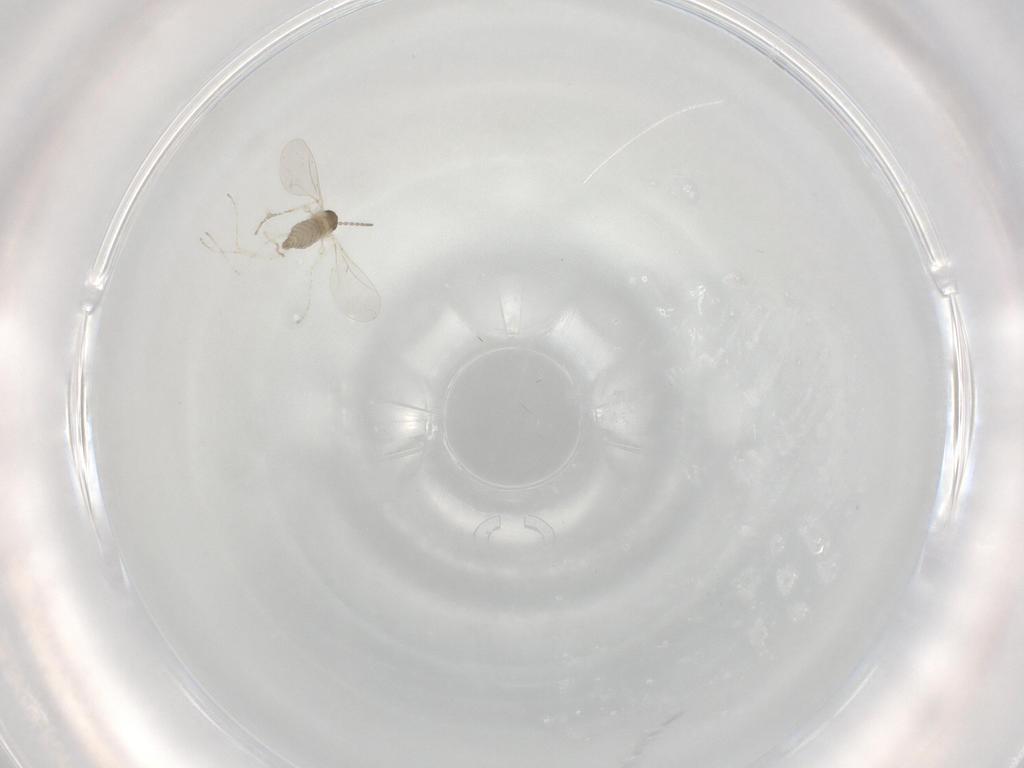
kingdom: Animalia
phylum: Arthropoda
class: Insecta
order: Diptera
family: Cecidomyiidae
